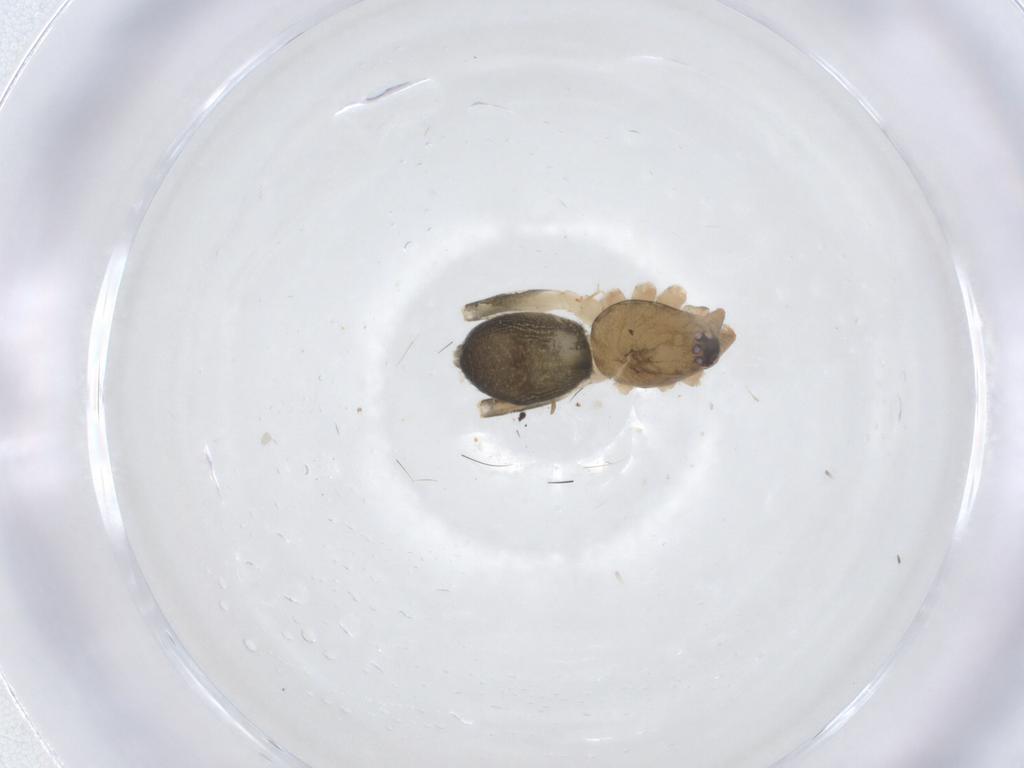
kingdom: Animalia
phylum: Arthropoda
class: Arachnida
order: Araneae
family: Anyphaenidae
